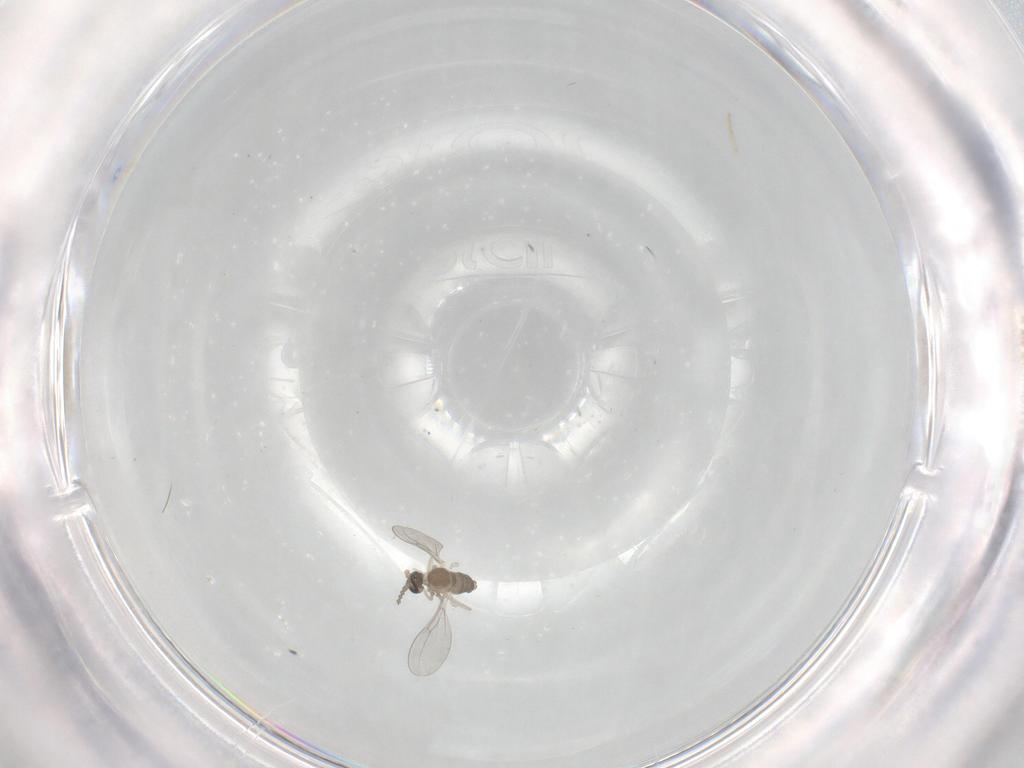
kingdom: Animalia
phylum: Arthropoda
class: Insecta
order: Diptera
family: Cecidomyiidae
